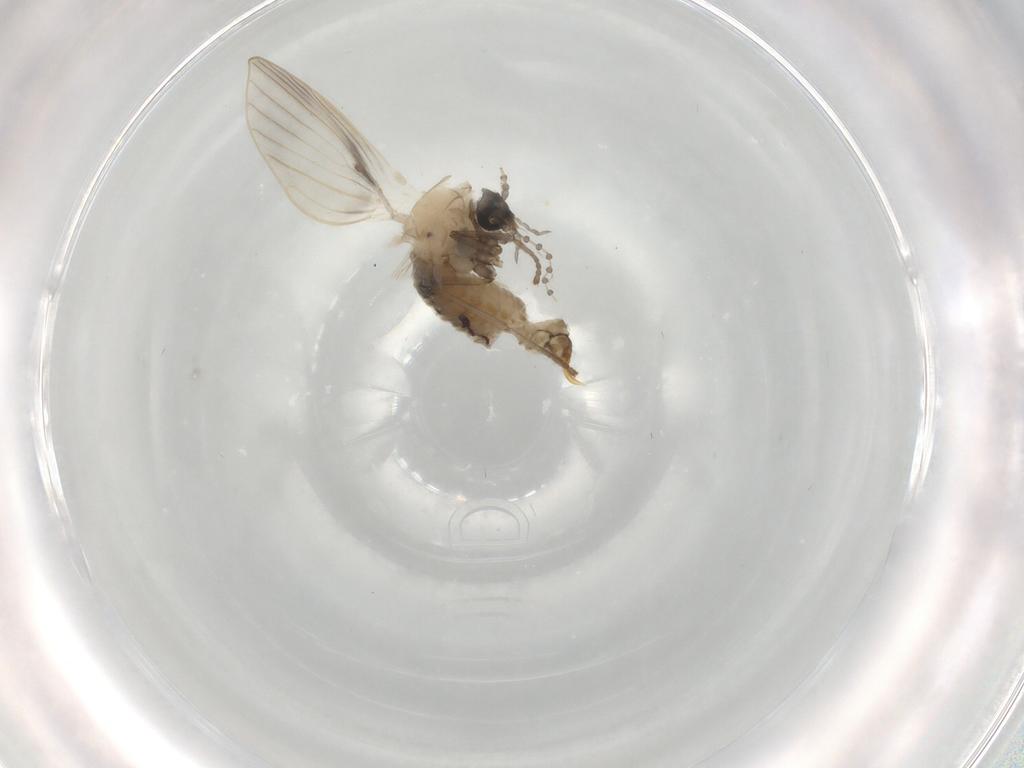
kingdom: Animalia
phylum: Arthropoda
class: Insecta
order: Diptera
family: Psychodidae
